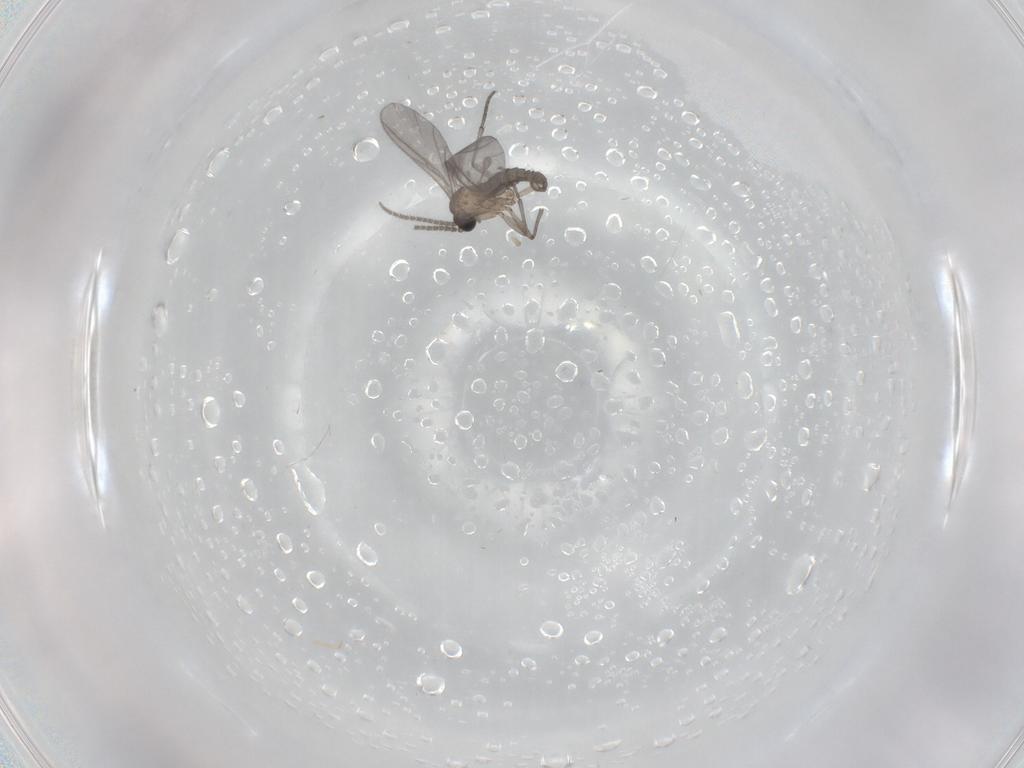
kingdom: Animalia
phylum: Arthropoda
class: Insecta
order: Diptera
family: Sciaridae
